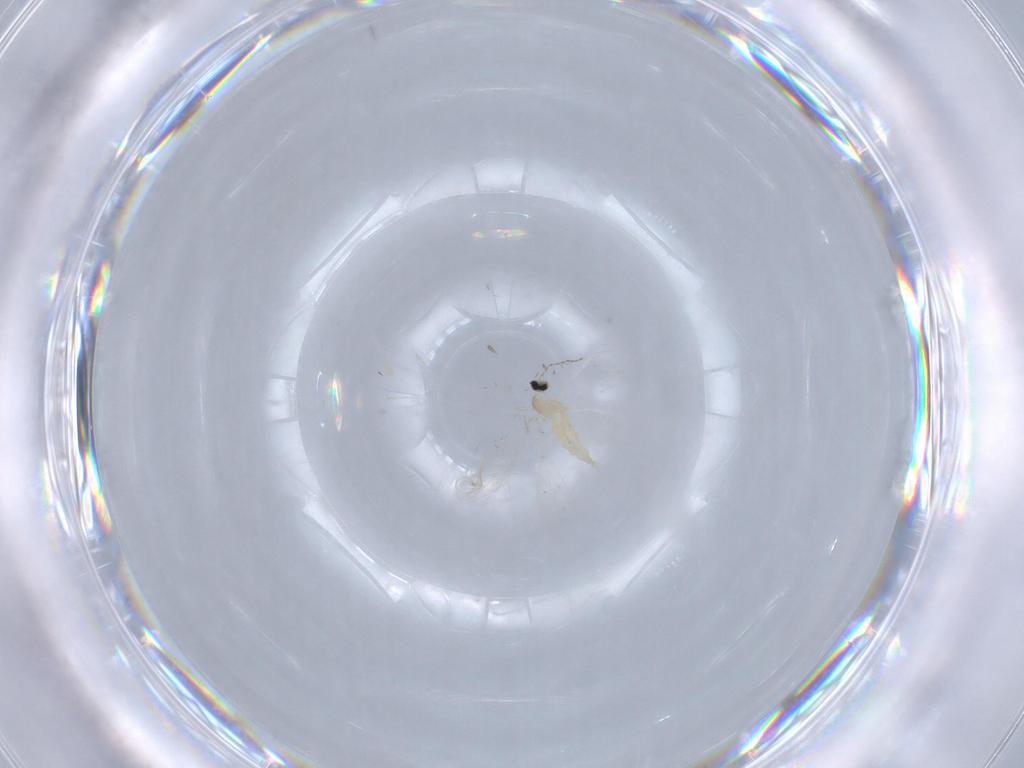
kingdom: Animalia
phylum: Arthropoda
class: Insecta
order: Diptera
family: Cecidomyiidae
